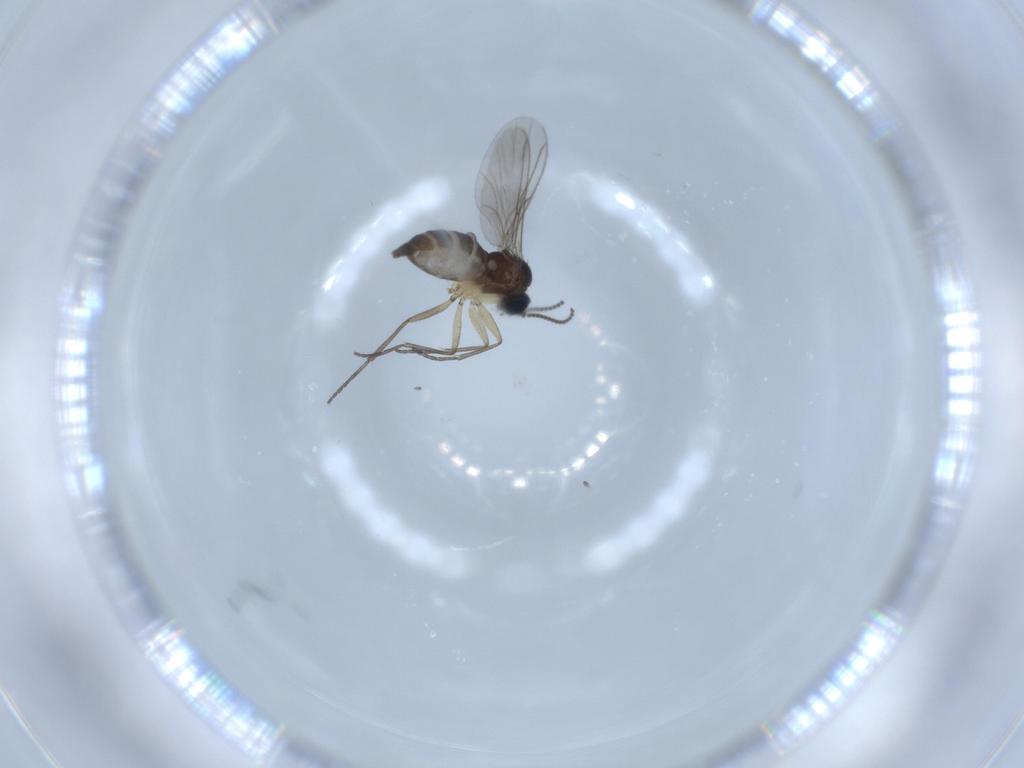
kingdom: Animalia
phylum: Arthropoda
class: Insecta
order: Diptera
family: Sciaridae
